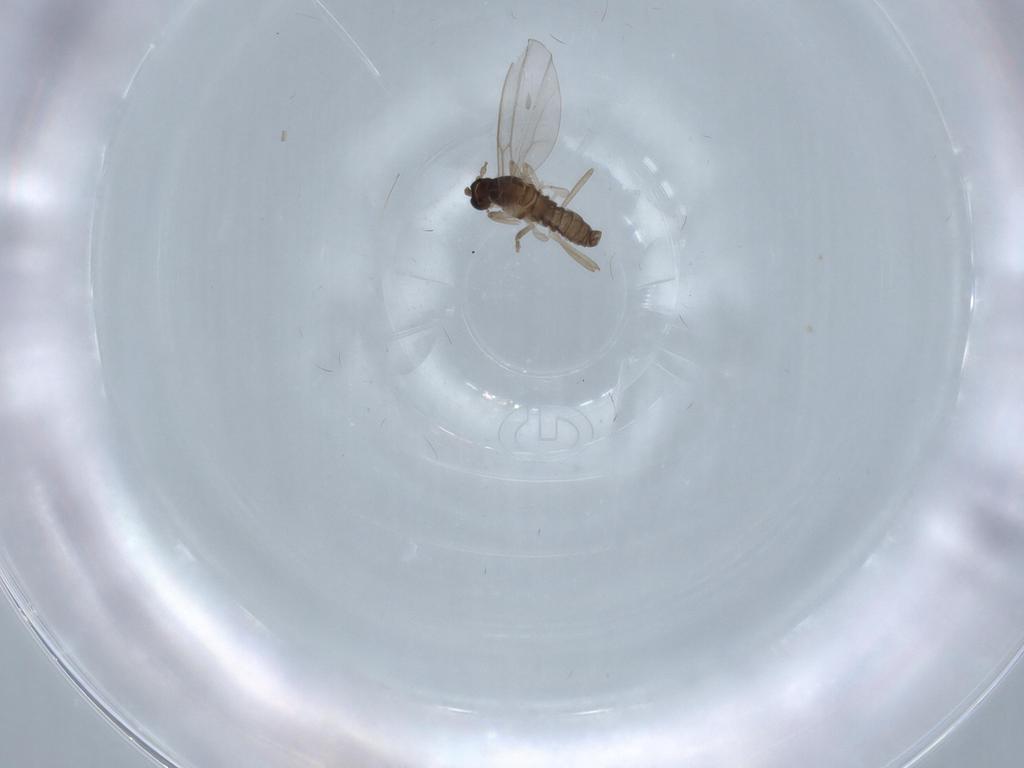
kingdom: Animalia
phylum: Arthropoda
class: Insecta
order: Diptera
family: Cecidomyiidae
